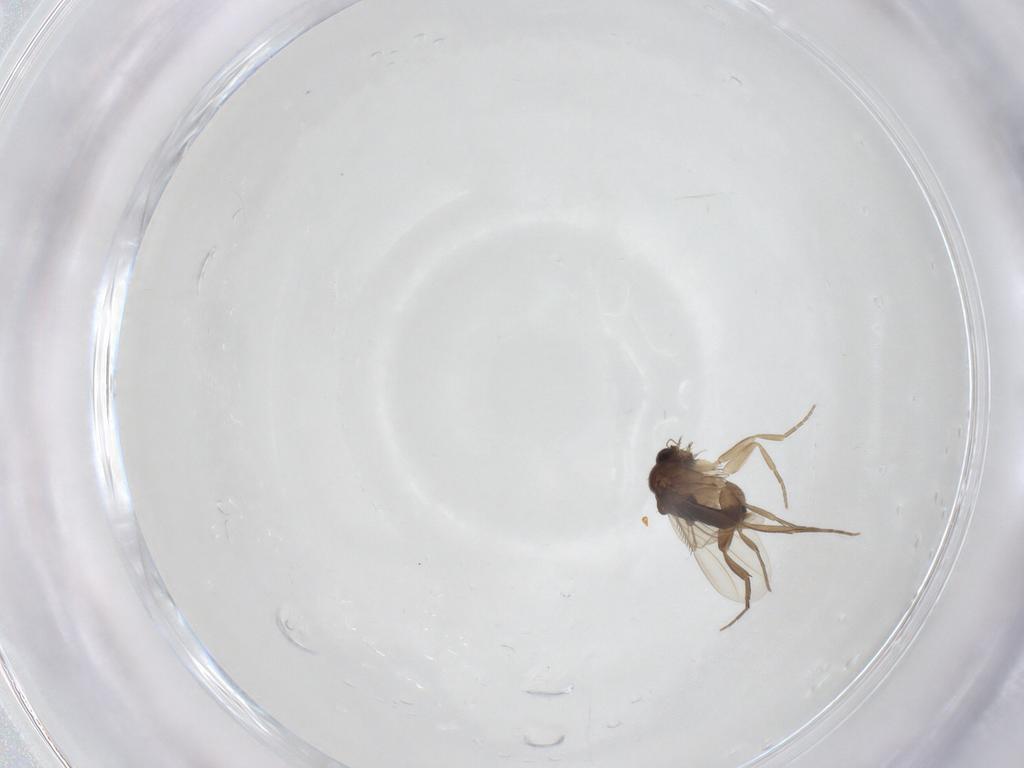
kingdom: Animalia
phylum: Arthropoda
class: Insecta
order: Diptera
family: Phoridae
